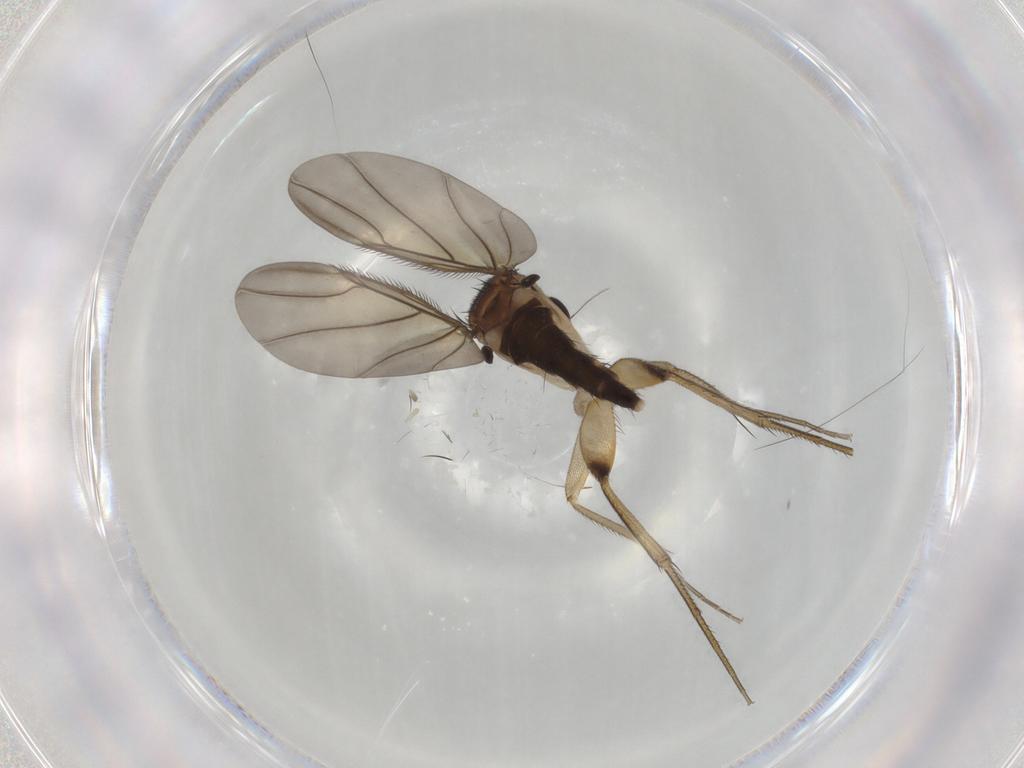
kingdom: Animalia
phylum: Arthropoda
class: Insecta
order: Diptera
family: Phoridae
